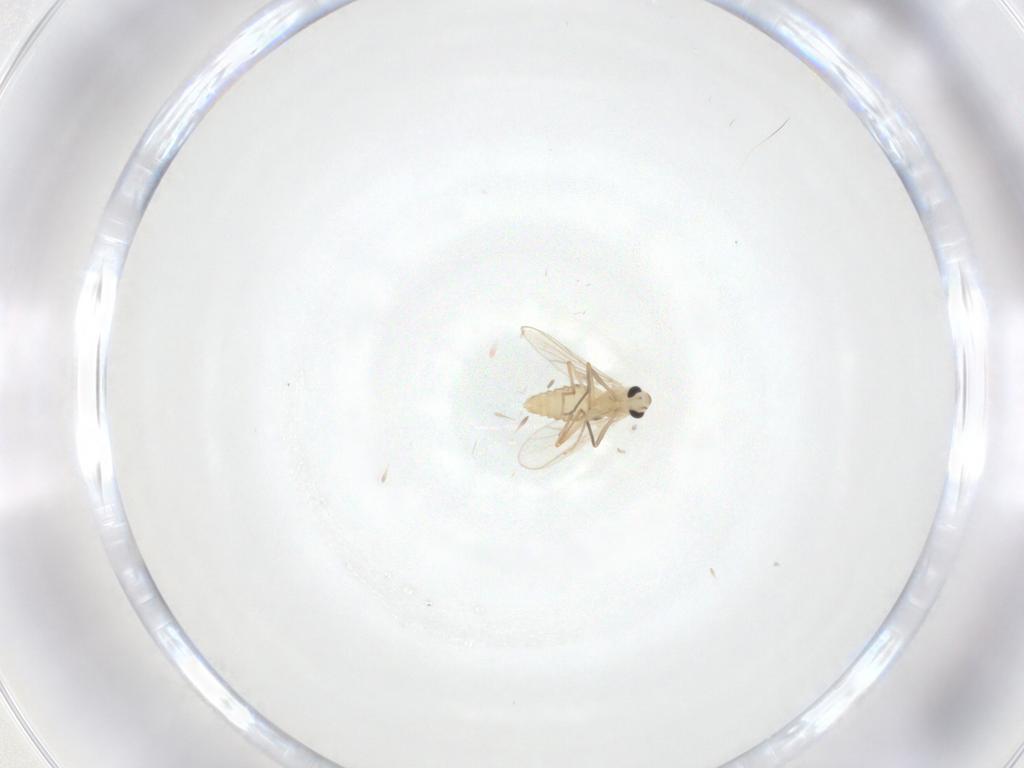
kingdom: Animalia
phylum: Arthropoda
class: Insecta
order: Diptera
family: Chironomidae
